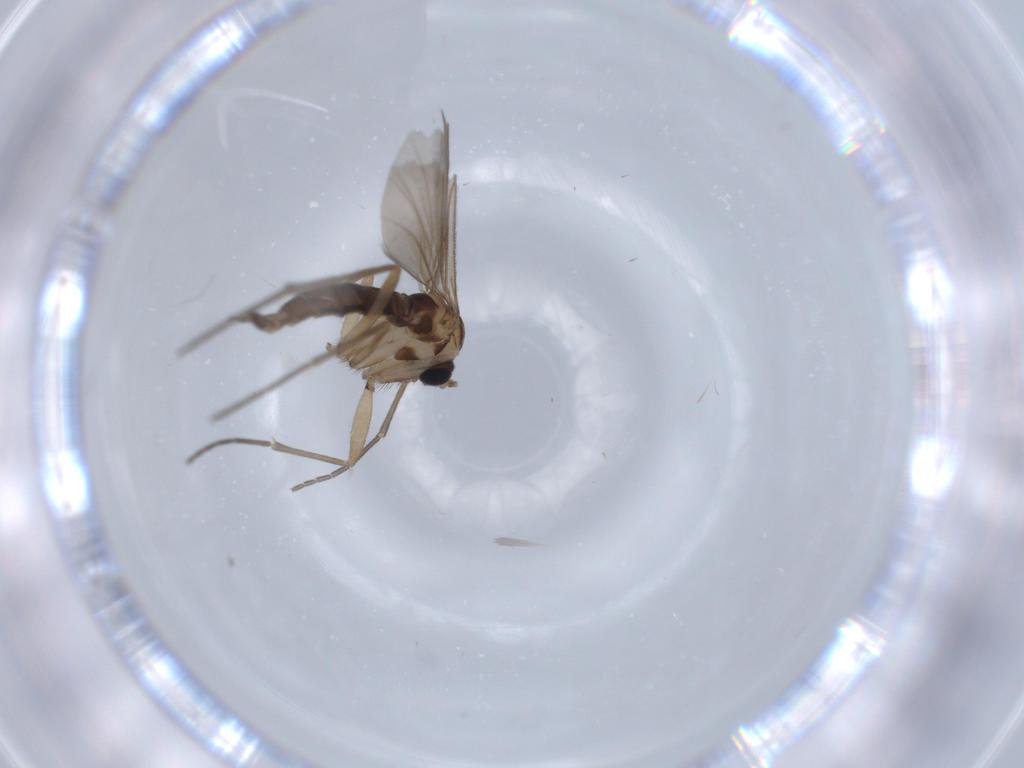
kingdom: Animalia
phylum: Arthropoda
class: Insecta
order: Diptera
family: Sciaridae
